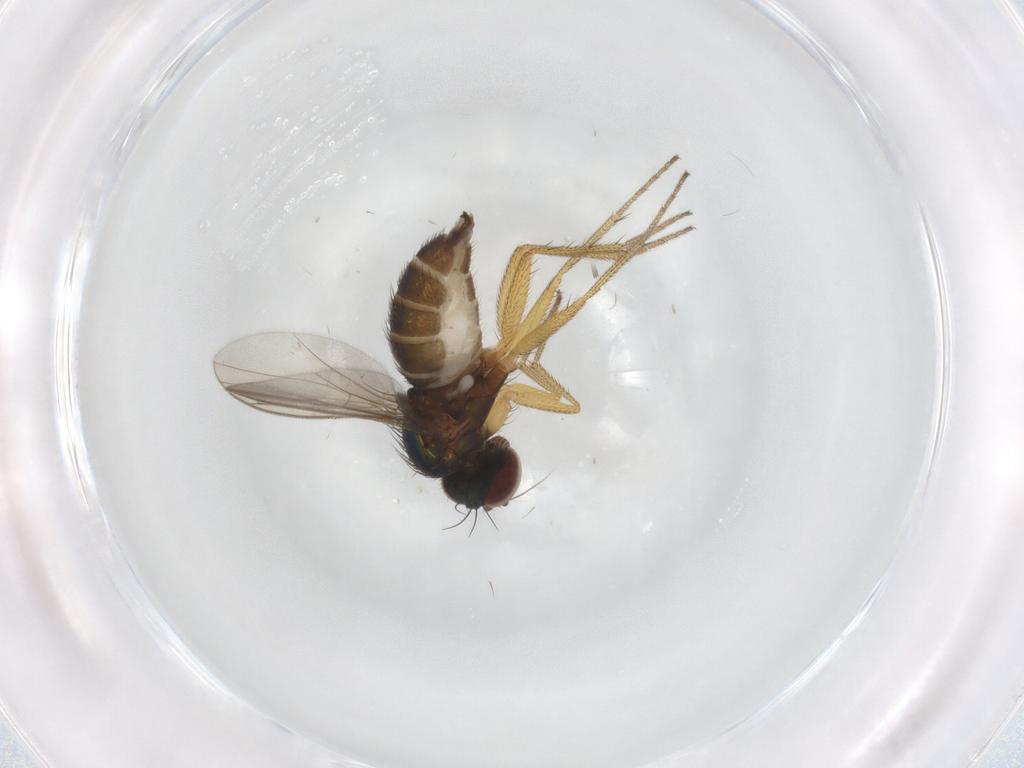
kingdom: Animalia
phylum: Arthropoda
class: Insecta
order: Diptera
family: Dolichopodidae
